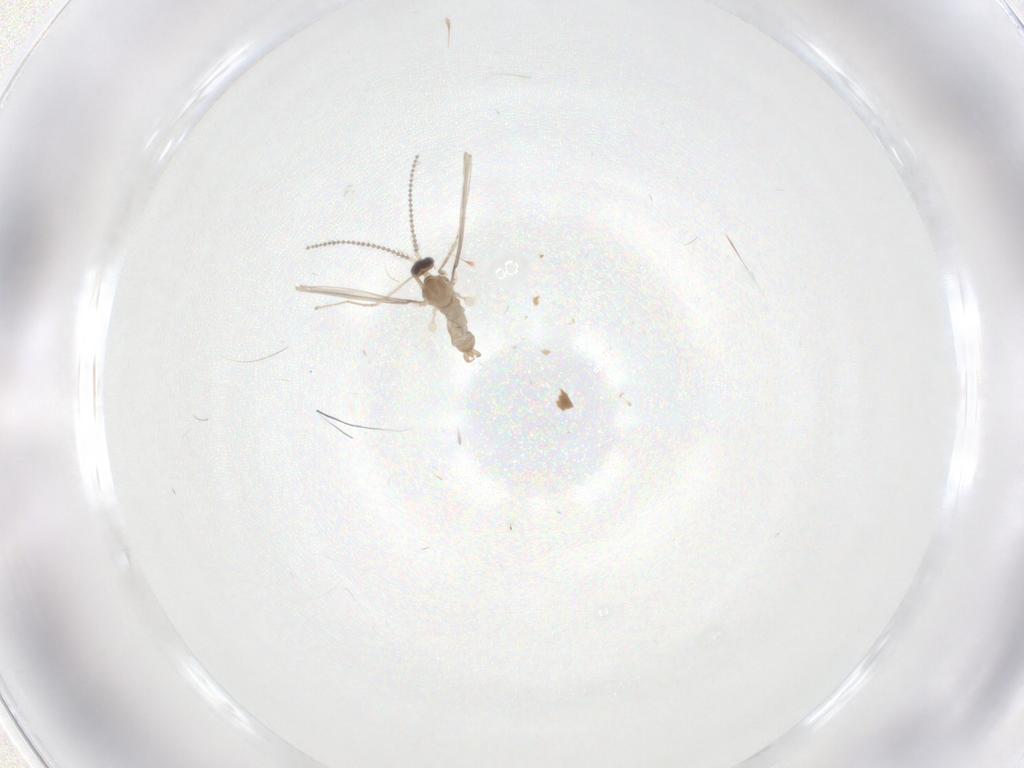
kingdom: Animalia
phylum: Arthropoda
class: Insecta
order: Diptera
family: Cecidomyiidae
